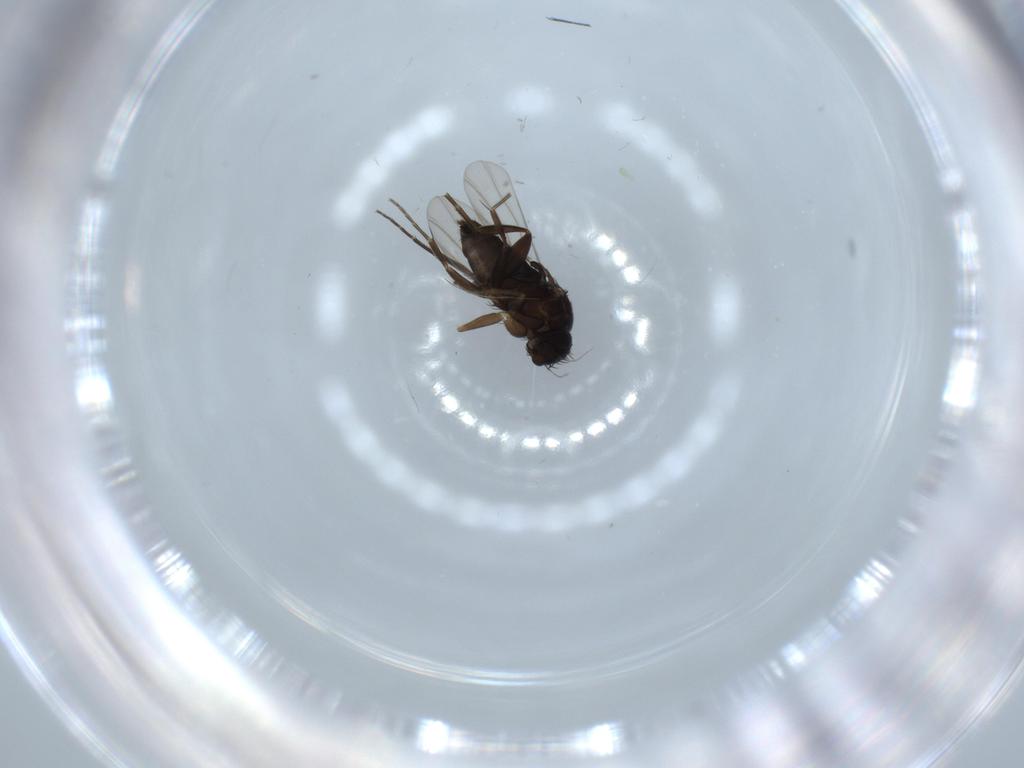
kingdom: Animalia
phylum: Arthropoda
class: Insecta
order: Diptera
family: Phoridae
